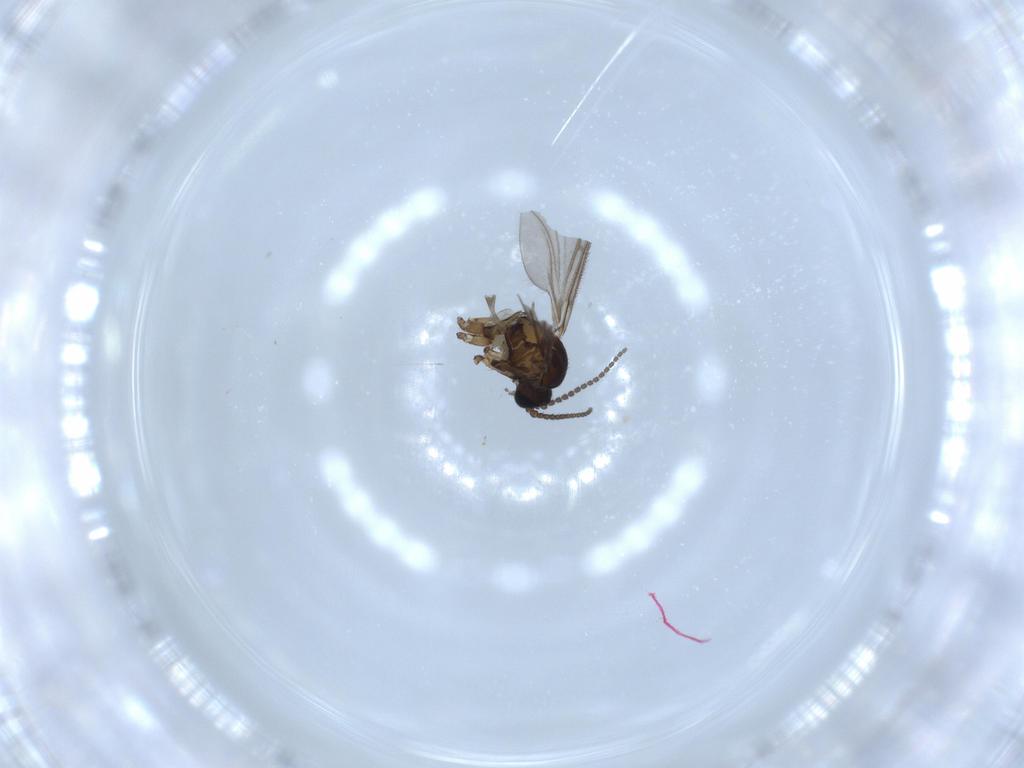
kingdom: Animalia
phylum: Arthropoda
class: Insecta
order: Diptera
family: Sciaridae
